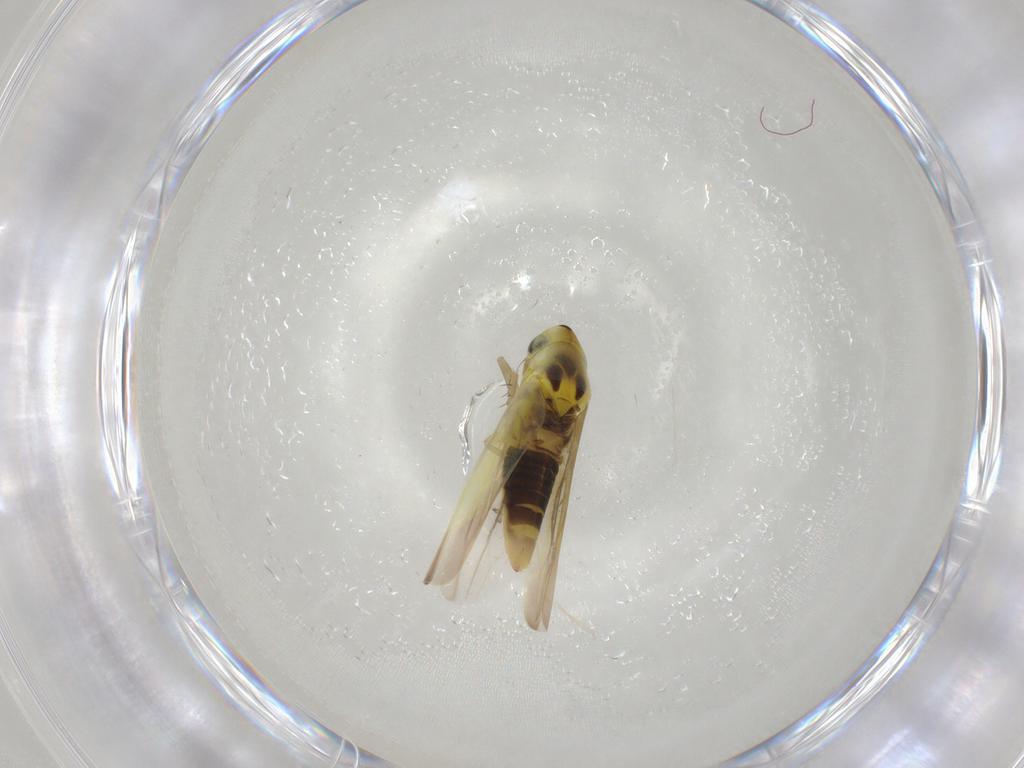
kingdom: Animalia
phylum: Arthropoda
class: Insecta
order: Hemiptera
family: Cicadellidae
